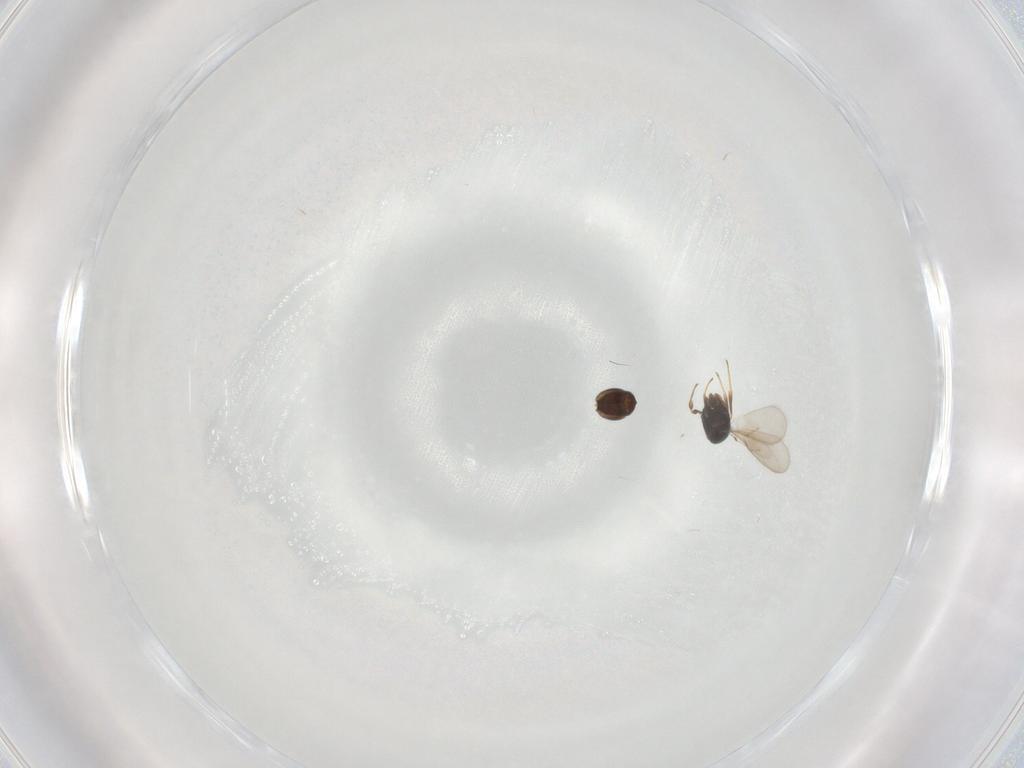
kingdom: Animalia
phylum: Arthropoda
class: Insecta
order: Hymenoptera
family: Scelionidae
